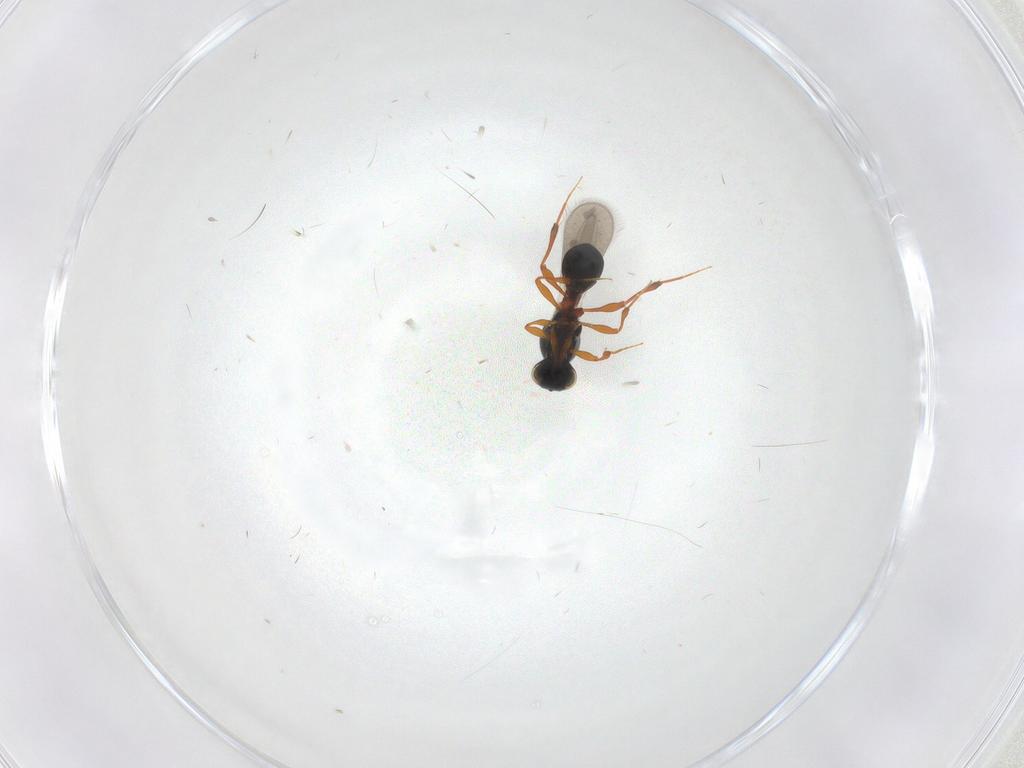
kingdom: Animalia
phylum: Arthropoda
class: Insecta
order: Hymenoptera
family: Platygastridae
